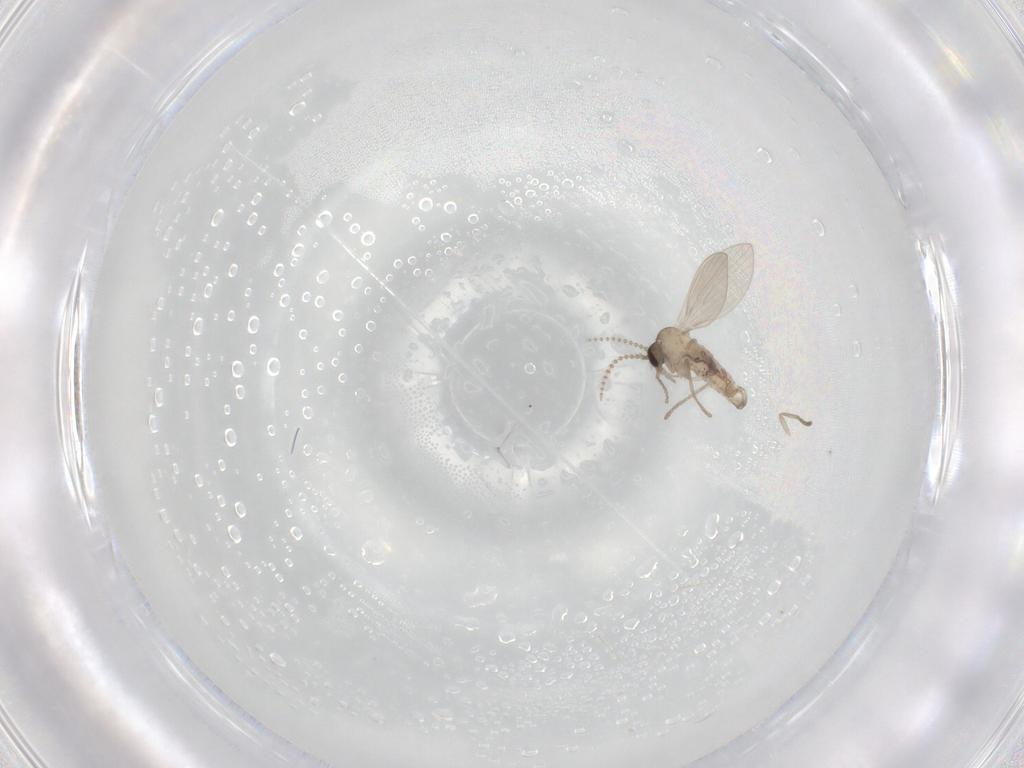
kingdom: Animalia
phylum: Arthropoda
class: Insecta
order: Diptera
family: Psychodidae
